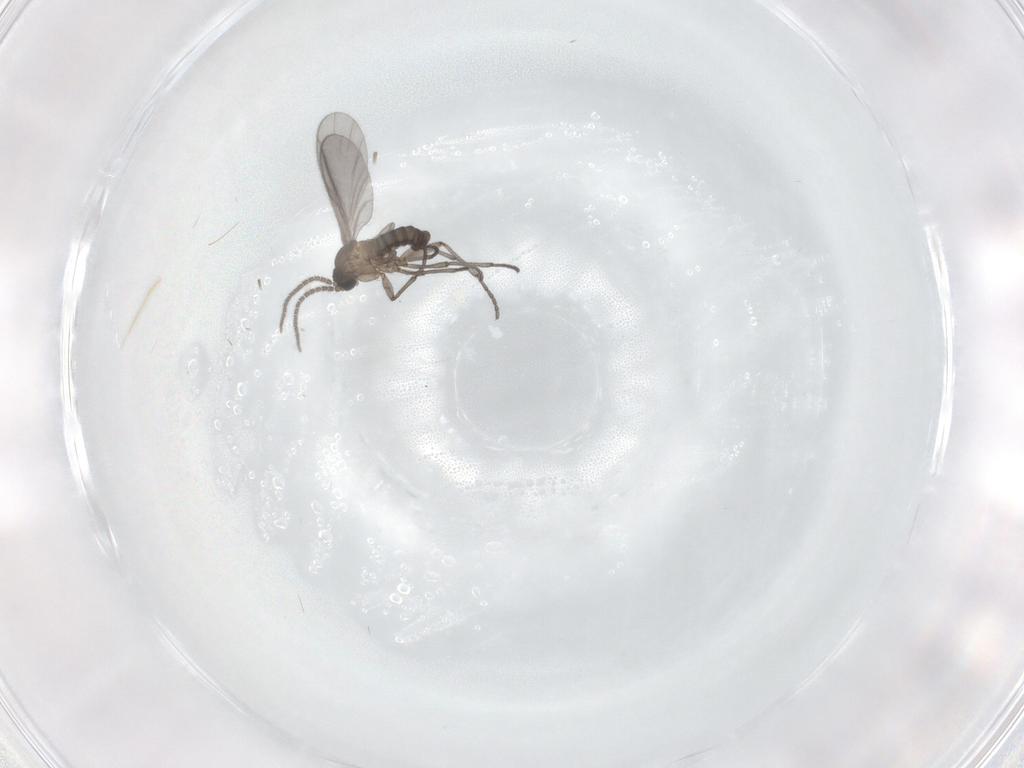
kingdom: Animalia
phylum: Arthropoda
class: Insecta
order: Diptera
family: Sciaridae
